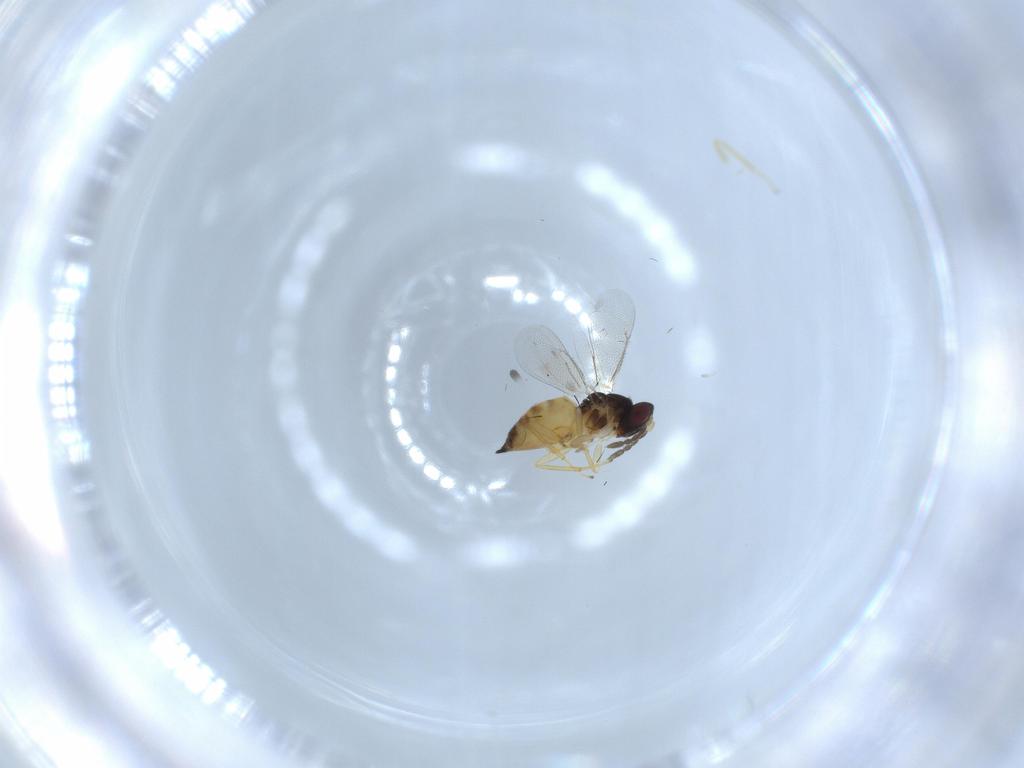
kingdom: Animalia
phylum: Arthropoda
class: Insecta
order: Hymenoptera
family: Eulophidae
